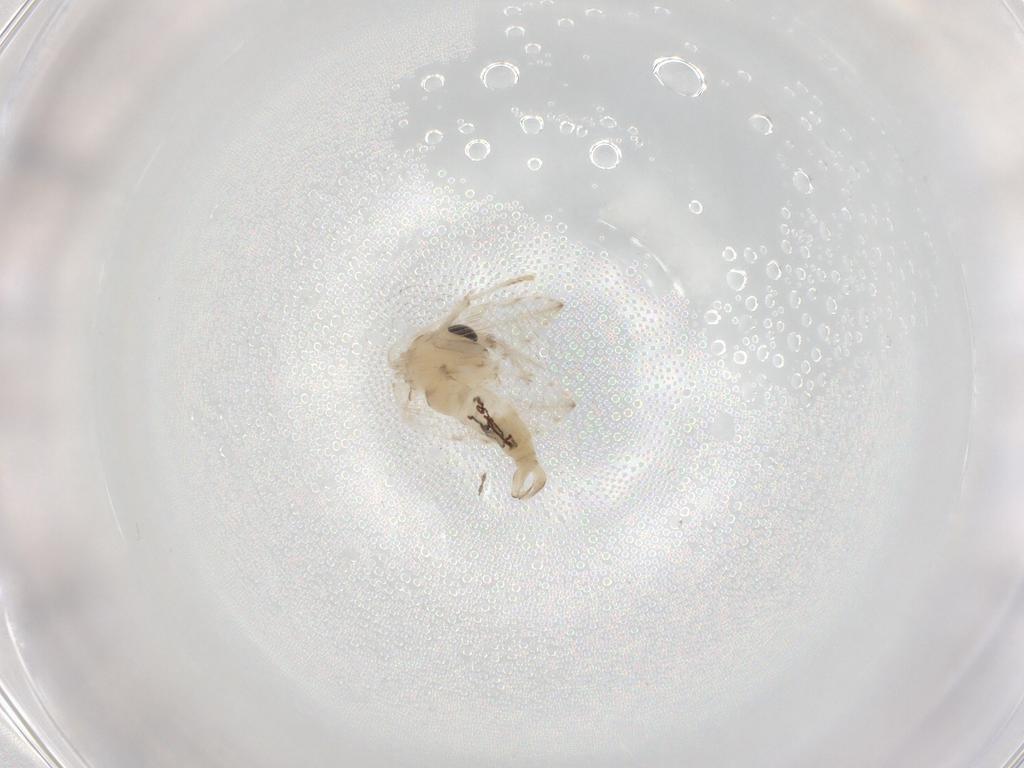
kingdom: Animalia
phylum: Arthropoda
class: Insecta
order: Diptera
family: Psychodidae
